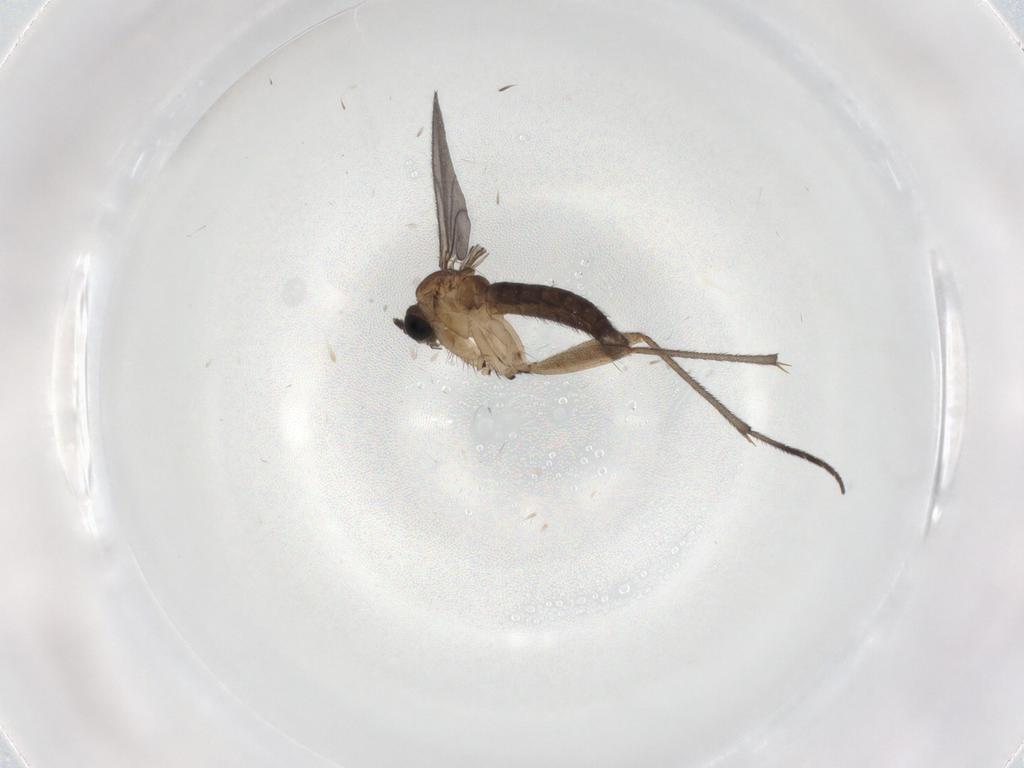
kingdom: Animalia
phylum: Arthropoda
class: Insecta
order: Diptera
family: Sciaridae
